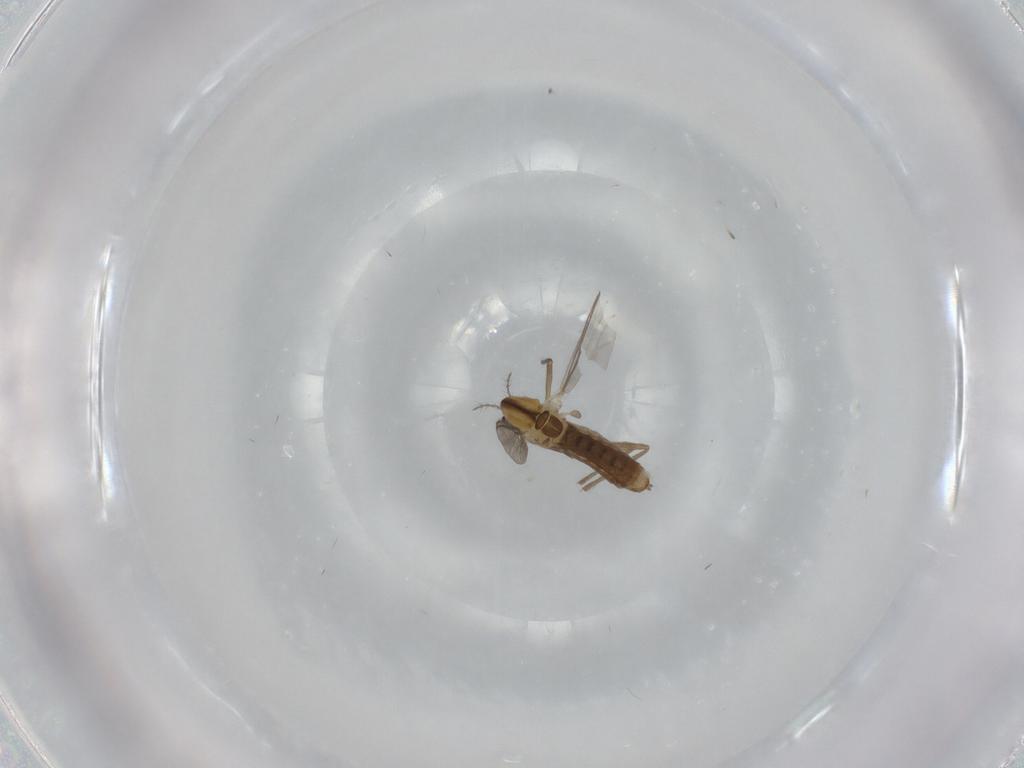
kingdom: Animalia
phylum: Arthropoda
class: Insecta
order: Diptera
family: Chironomidae
